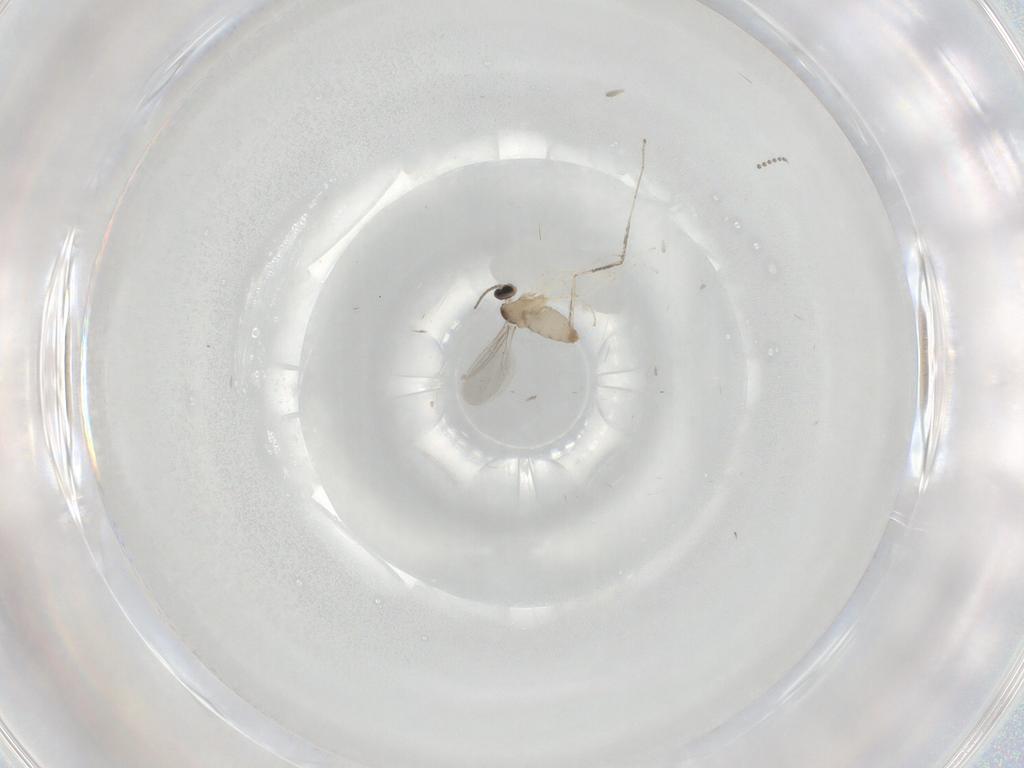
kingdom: Animalia
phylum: Arthropoda
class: Insecta
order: Diptera
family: Cecidomyiidae
